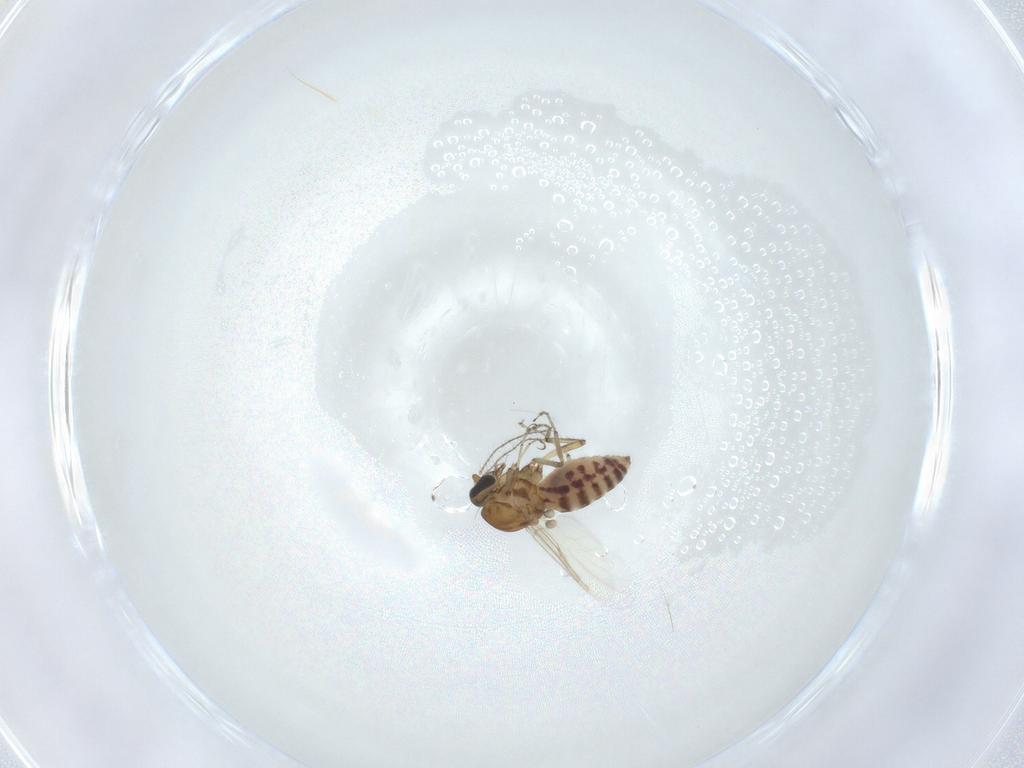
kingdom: Animalia
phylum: Arthropoda
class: Insecta
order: Diptera
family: Ceratopogonidae
